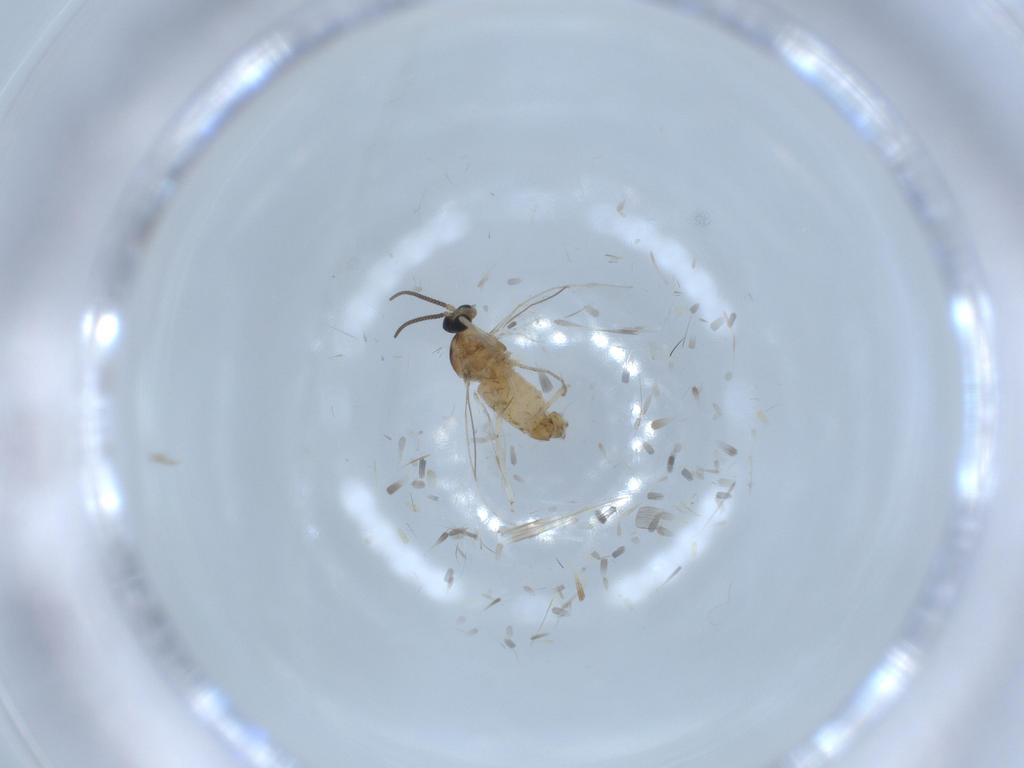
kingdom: Animalia
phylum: Arthropoda
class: Insecta
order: Diptera
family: Cecidomyiidae
